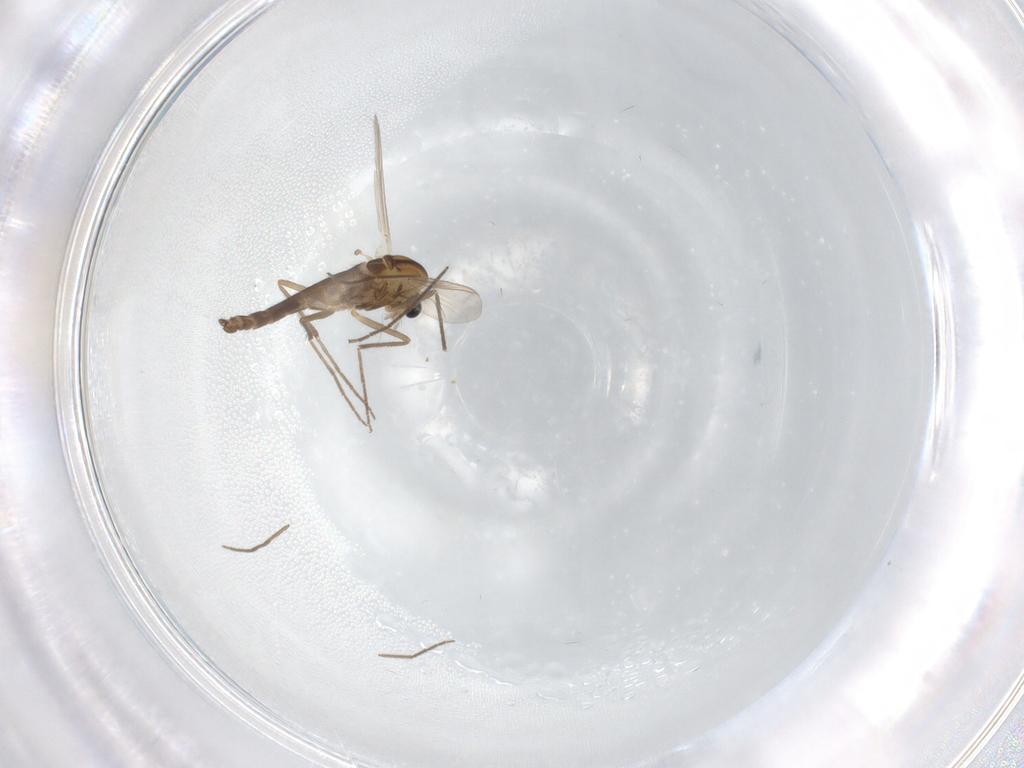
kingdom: Animalia
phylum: Arthropoda
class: Insecta
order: Diptera
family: Chironomidae
